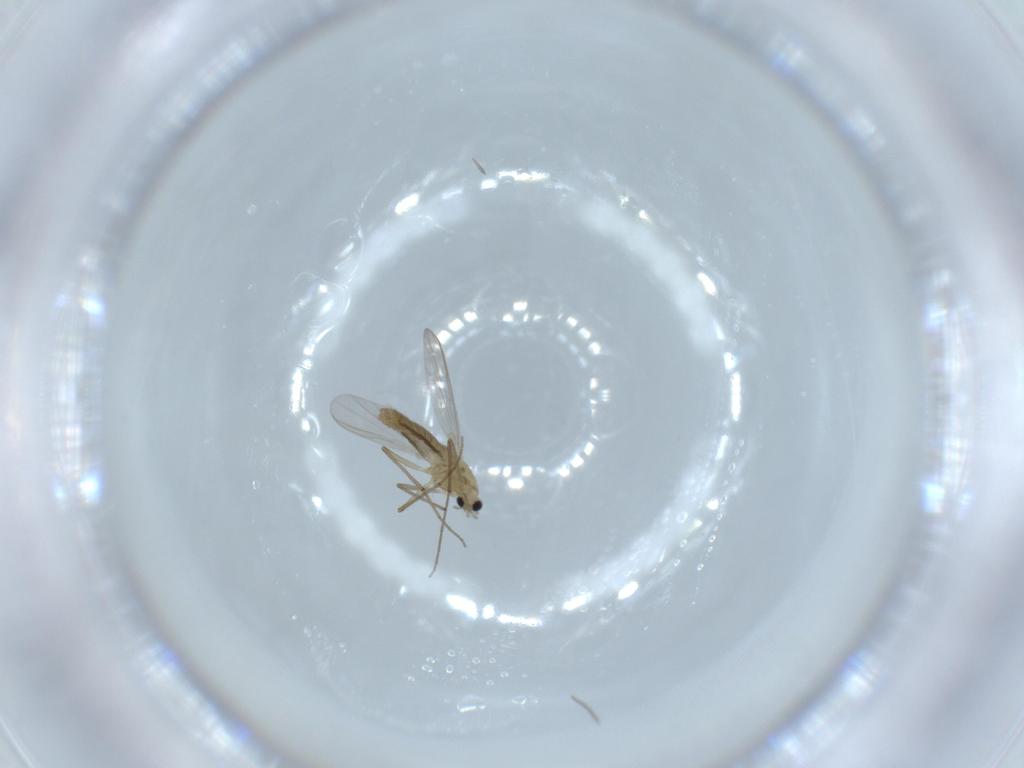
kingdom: Animalia
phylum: Arthropoda
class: Insecta
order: Diptera
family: Chironomidae
